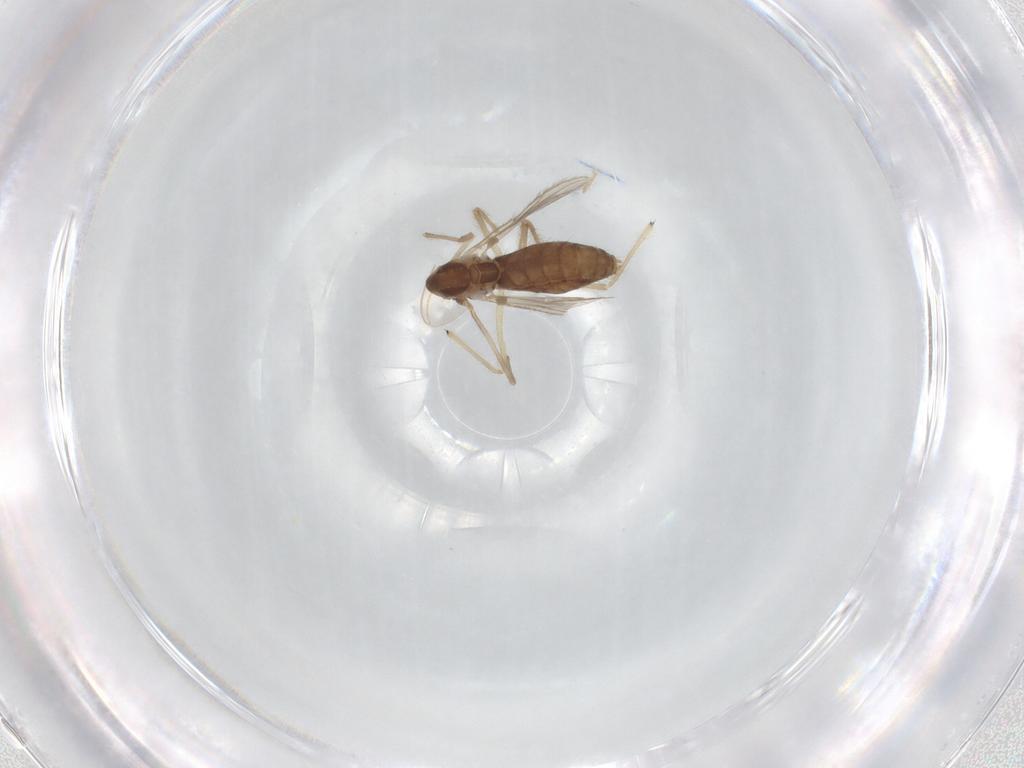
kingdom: Animalia
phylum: Arthropoda
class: Insecta
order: Diptera
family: Chironomidae
